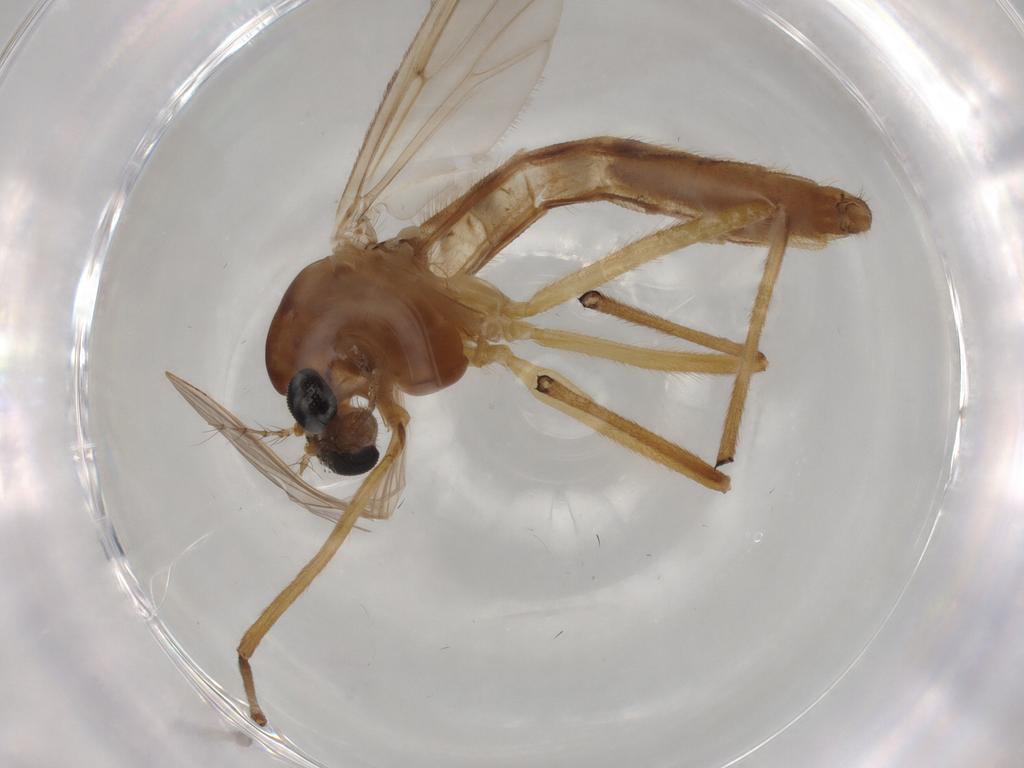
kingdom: Animalia
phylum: Arthropoda
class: Insecta
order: Diptera
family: Chironomidae
